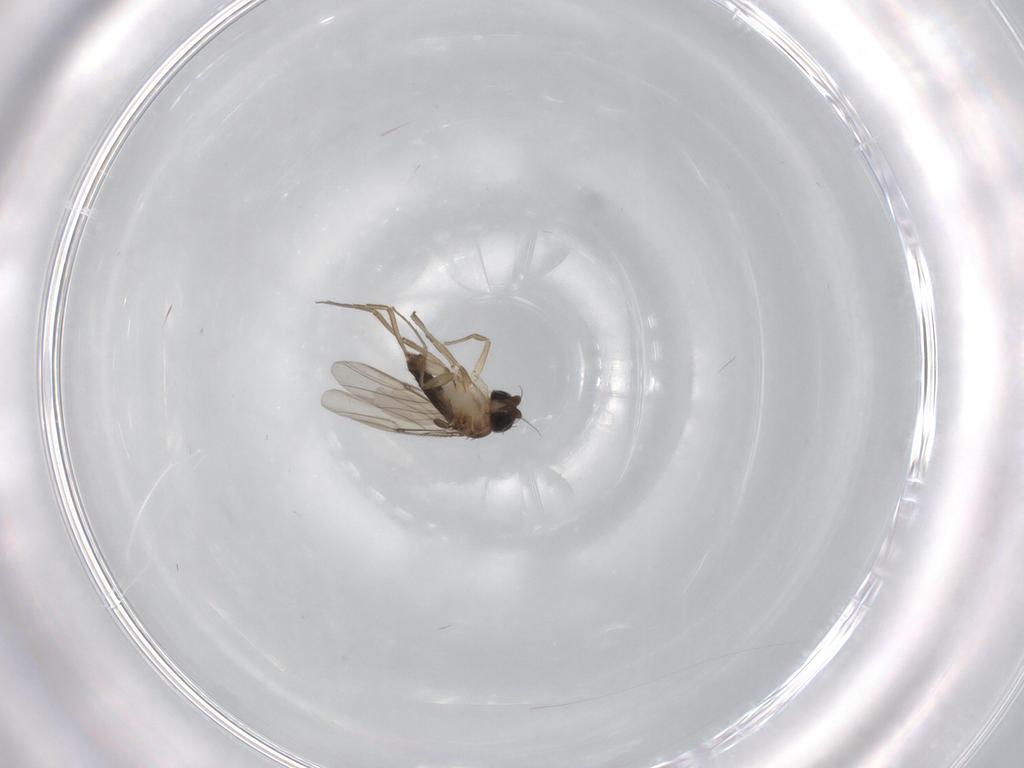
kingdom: Animalia
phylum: Arthropoda
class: Insecta
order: Diptera
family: Phoridae
